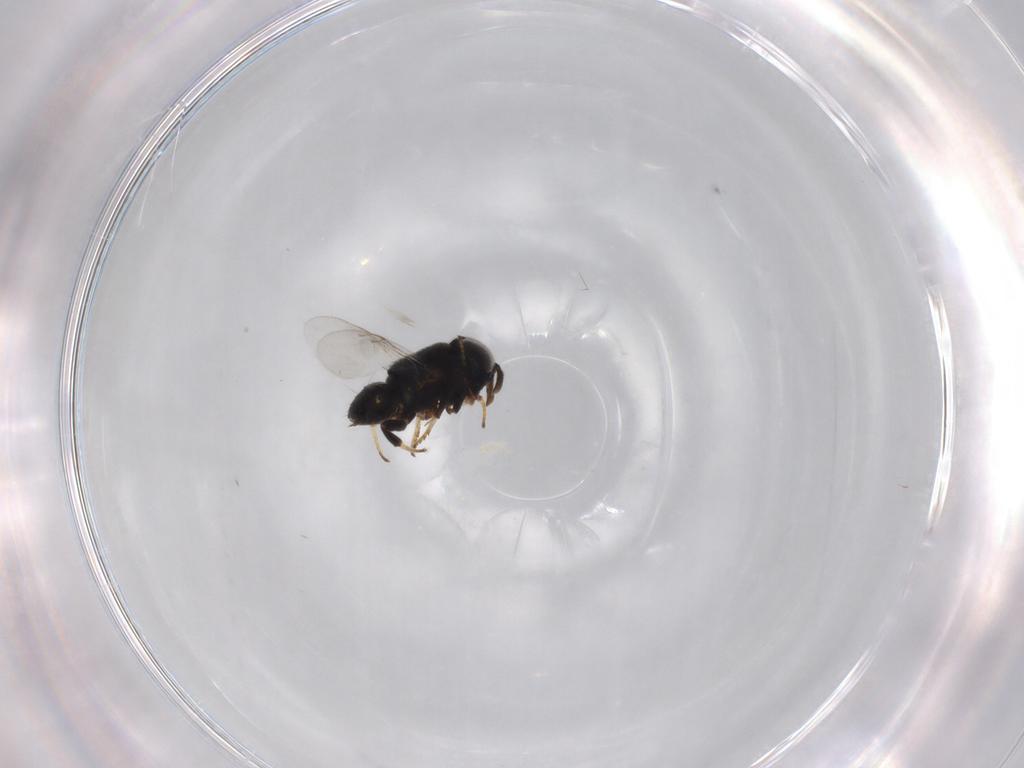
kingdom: Animalia
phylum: Arthropoda
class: Insecta
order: Hymenoptera
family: Encyrtidae
